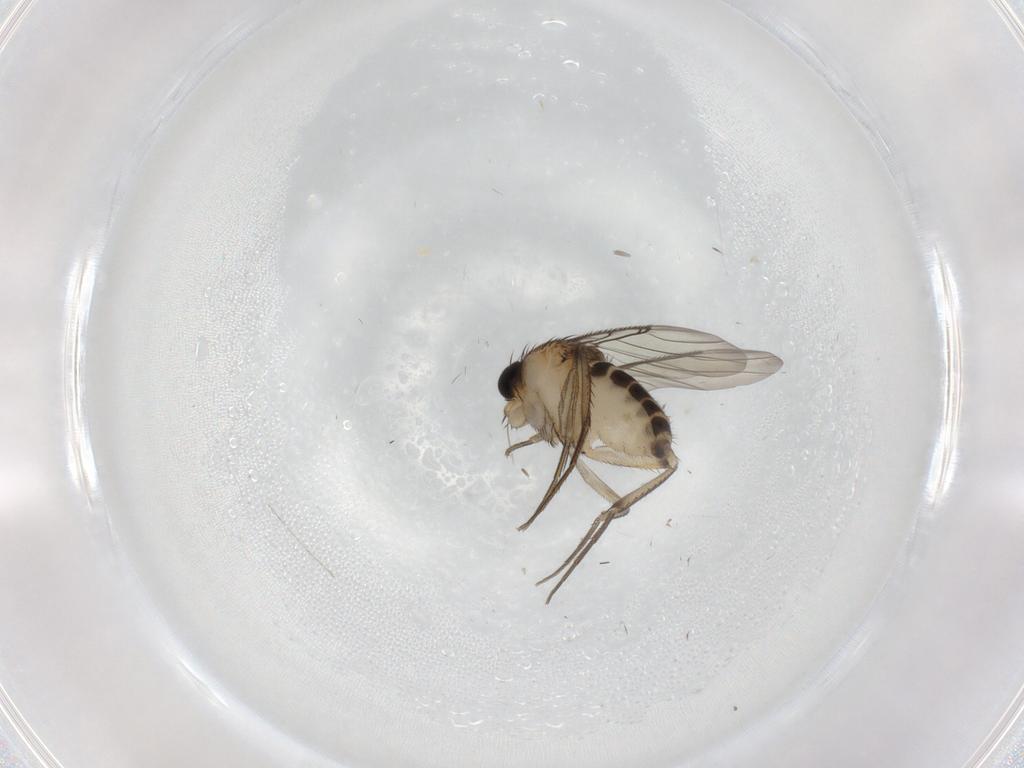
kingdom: Animalia
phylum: Arthropoda
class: Insecta
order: Diptera
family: Phoridae
